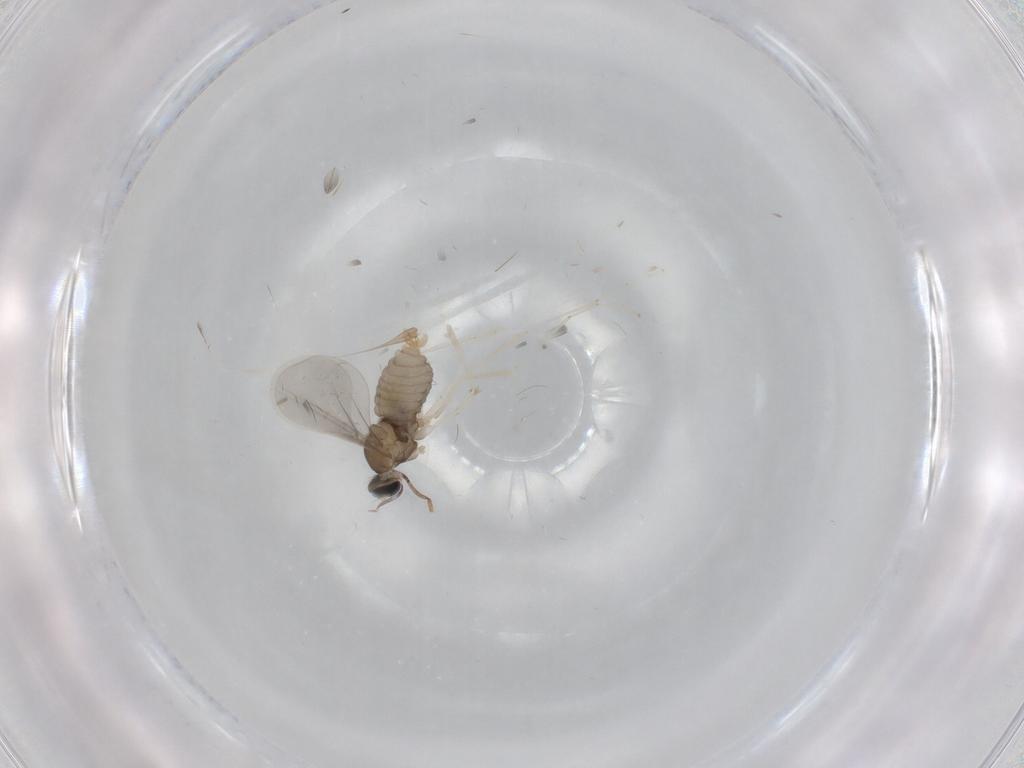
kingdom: Animalia
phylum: Arthropoda
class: Insecta
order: Diptera
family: Cecidomyiidae
